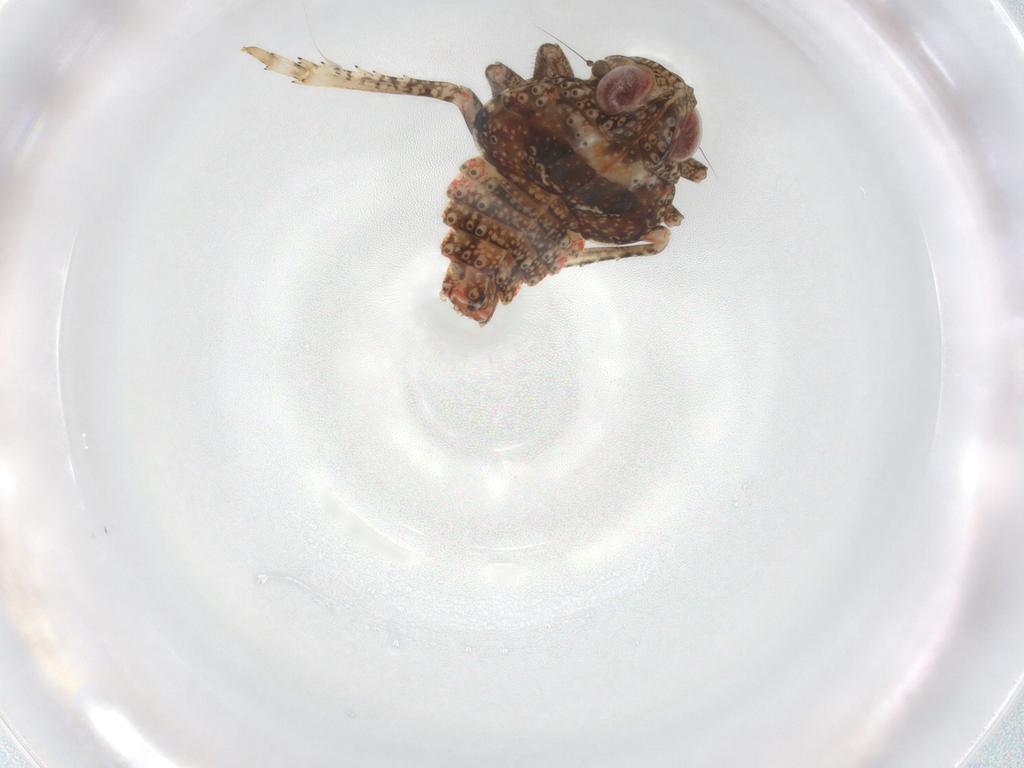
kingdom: Animalia
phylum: Arthropoda
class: Insecta
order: Hemiptera
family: Tropiduchidae
